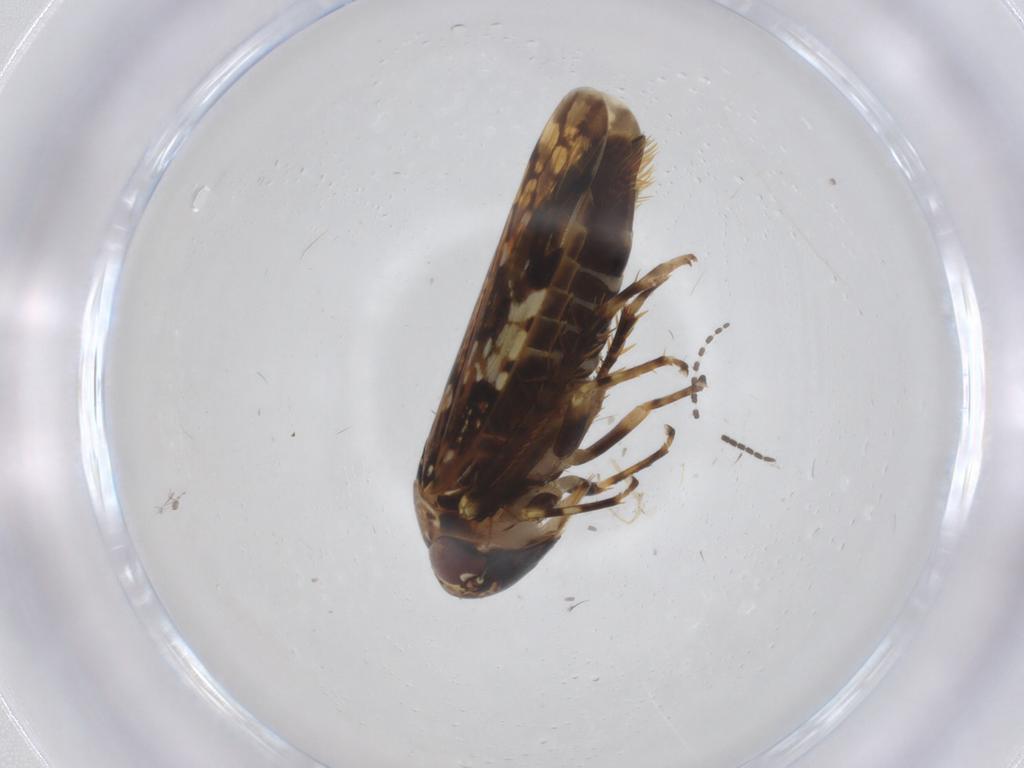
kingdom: Animalia
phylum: Arthropoda
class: Insecta
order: Hemiptera
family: Cicadellidae
